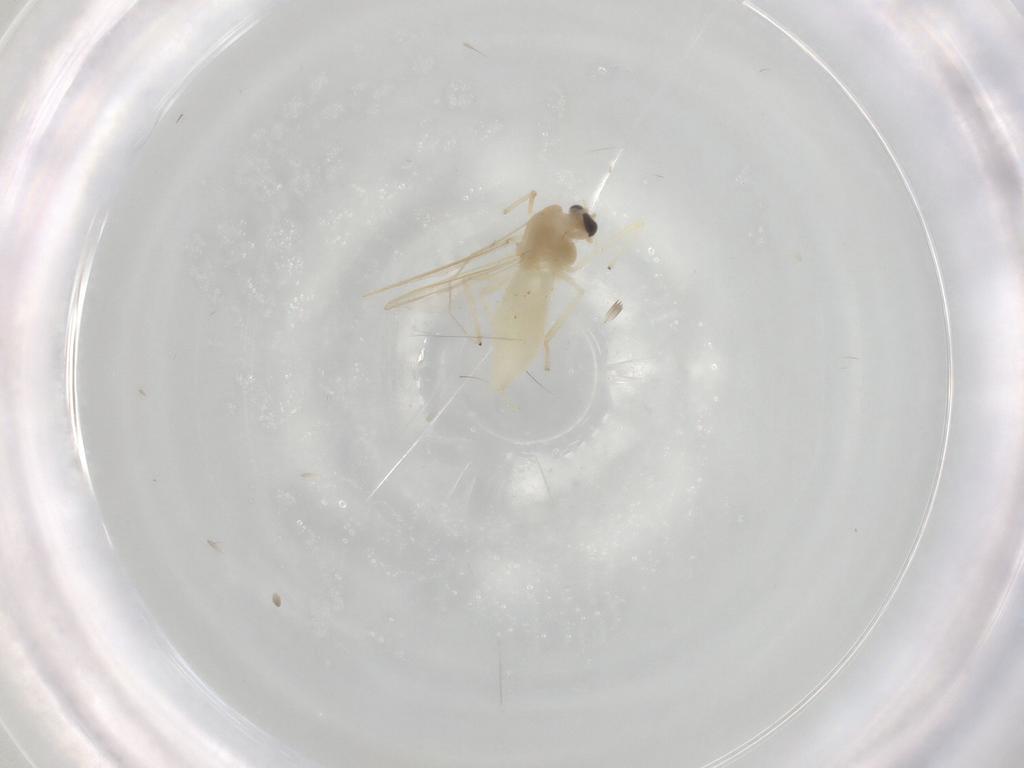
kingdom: Animalia
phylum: Arthropoda
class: Insecta
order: Diptera
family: Chironomidae
